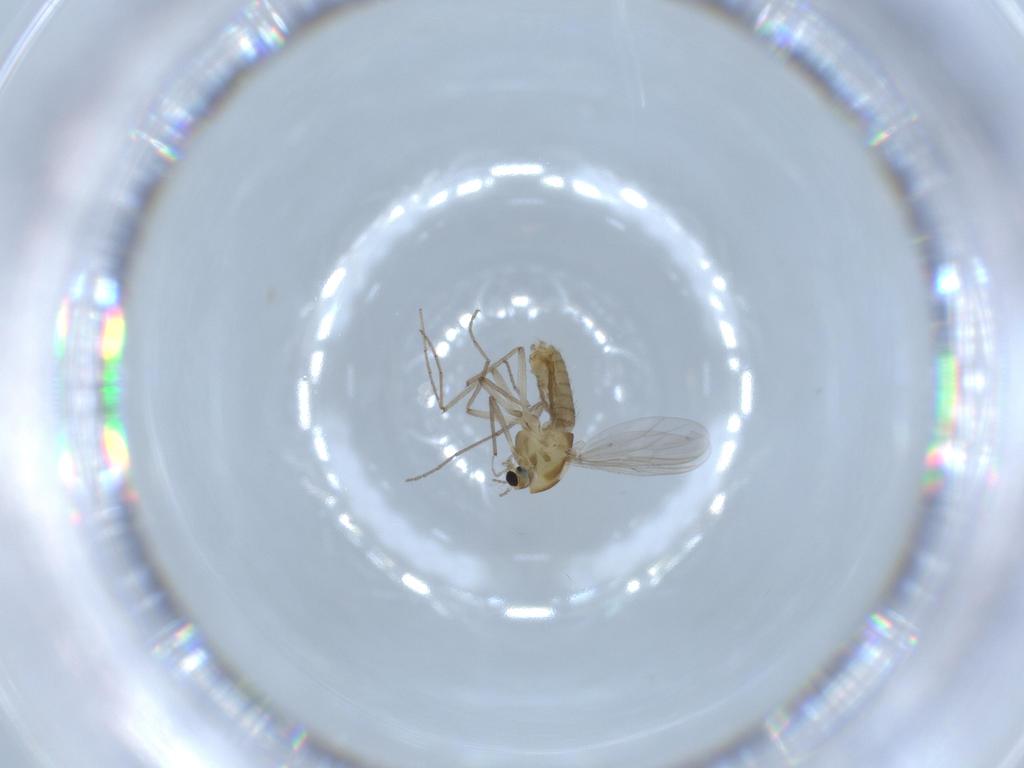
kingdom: Animalia
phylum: Arthropoda
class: Insecta
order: Diptera
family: Chironomidae
